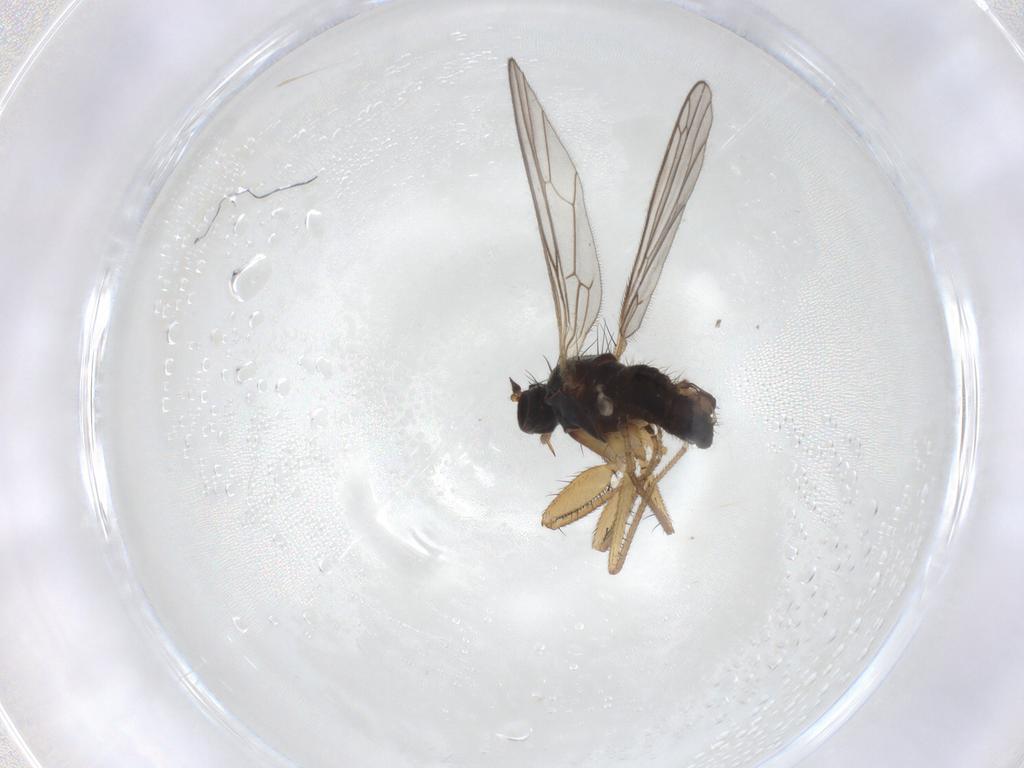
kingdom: Animalia
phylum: Arthropoda
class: Insecta
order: Diptera
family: Empididae
